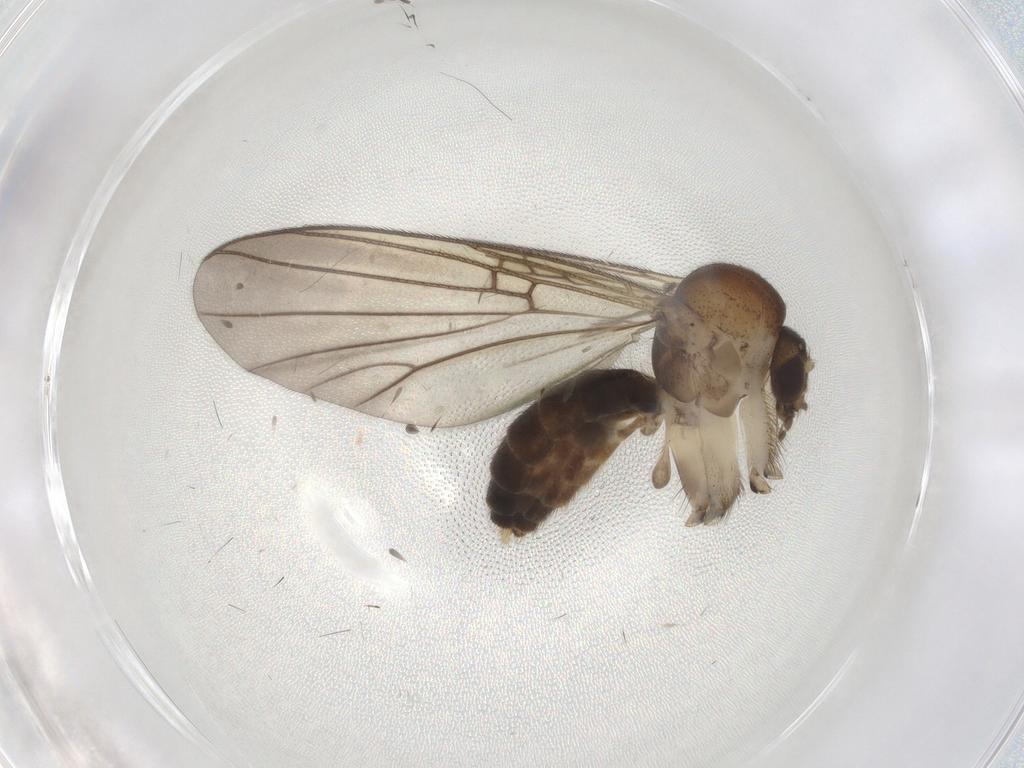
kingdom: Animalia
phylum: Arthropoda
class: Insecta
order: Diptera
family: Mycetophilidae
